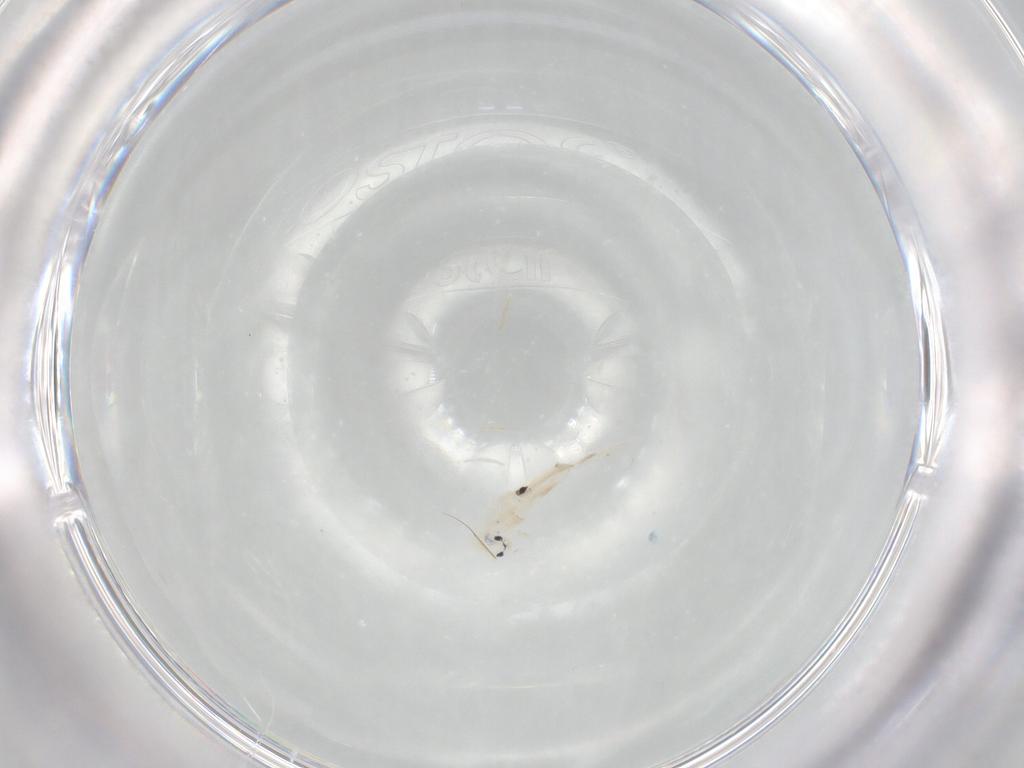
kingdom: Animalia
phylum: Arthropoda
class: Collembola
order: Entomobryomorpha
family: Entomobryidae
